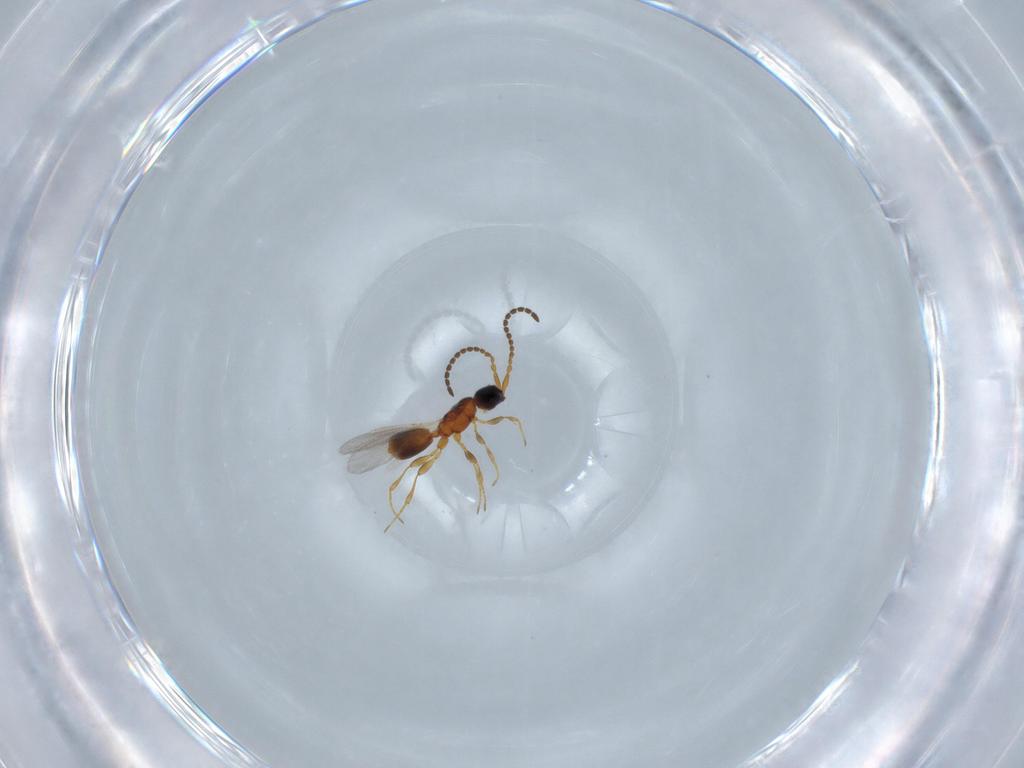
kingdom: Animalia
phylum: Arthropoda
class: Insecta
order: Hymenoptera
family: Diapriidae
